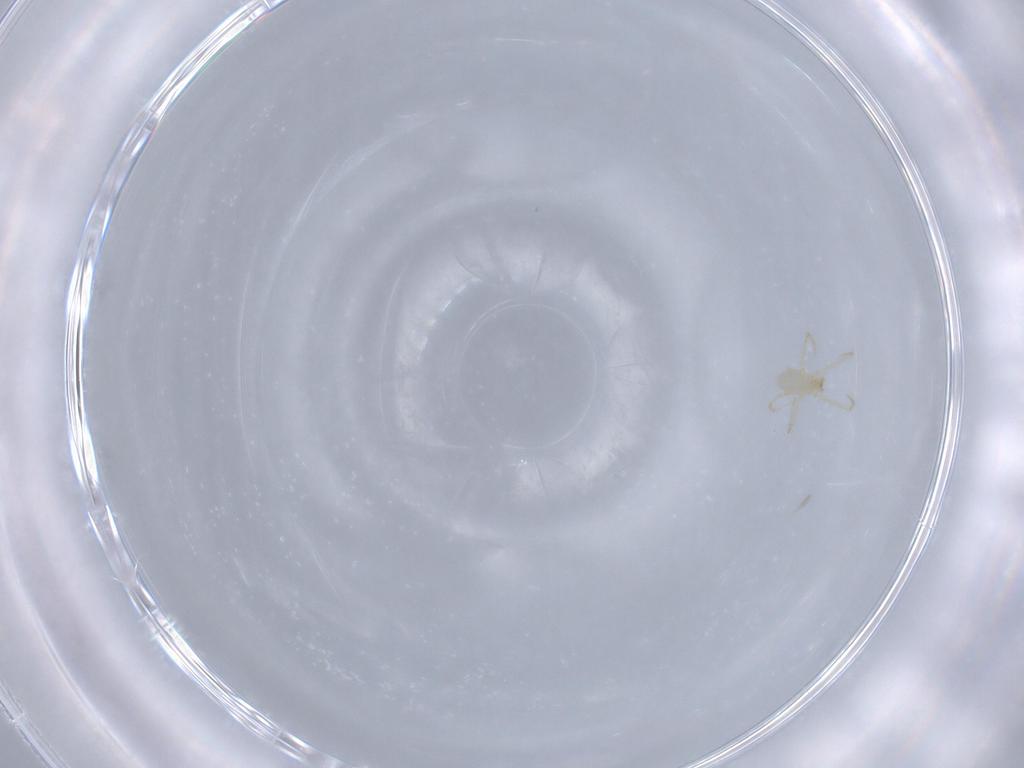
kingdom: Animalia
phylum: Arthropoda
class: Arachnida
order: Trombidiformes
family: Erythraeidae
